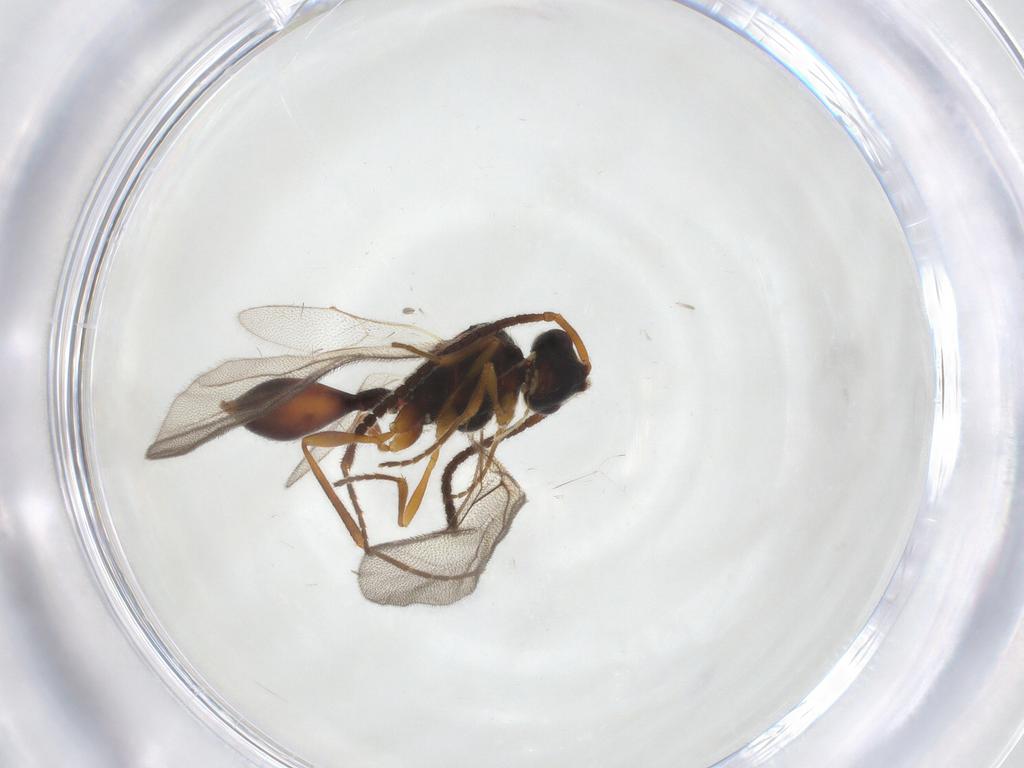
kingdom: Animalia
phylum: Arthropoda
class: Insecta
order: Hymenoptera
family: Diapriidae
